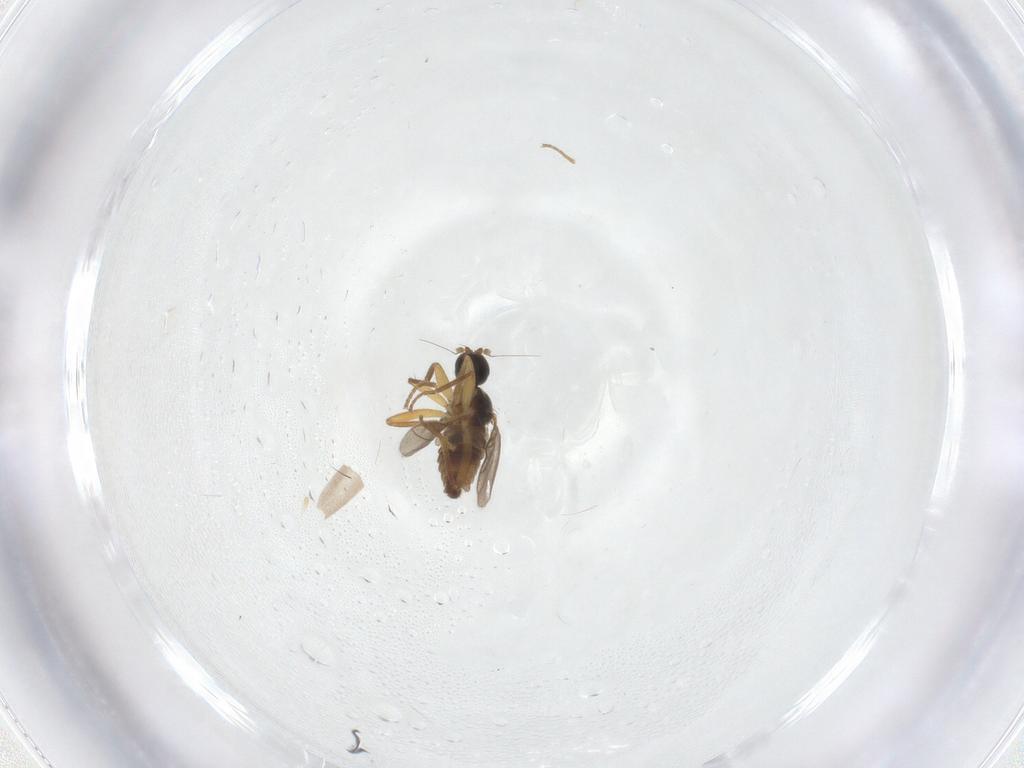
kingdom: Animalia
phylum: Arthropoda
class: Insecta
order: Diptera
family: Hybotidae
